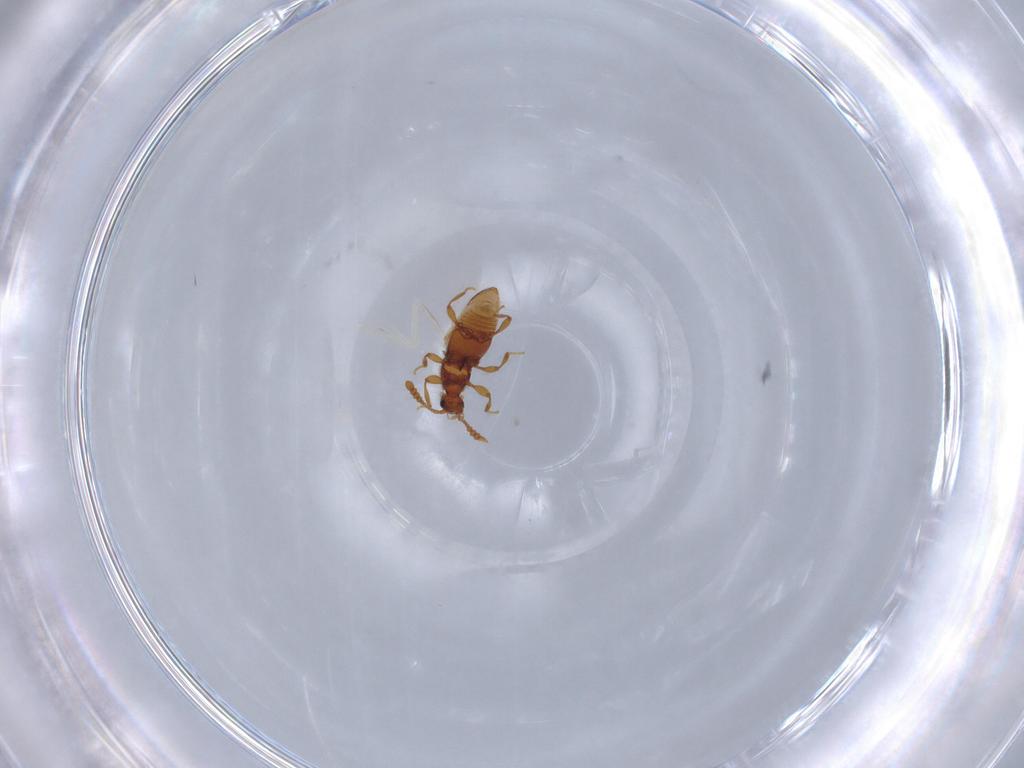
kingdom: Animalia
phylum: Arthropoda
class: Insecta
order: Coleoptera
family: Staphylinidae
